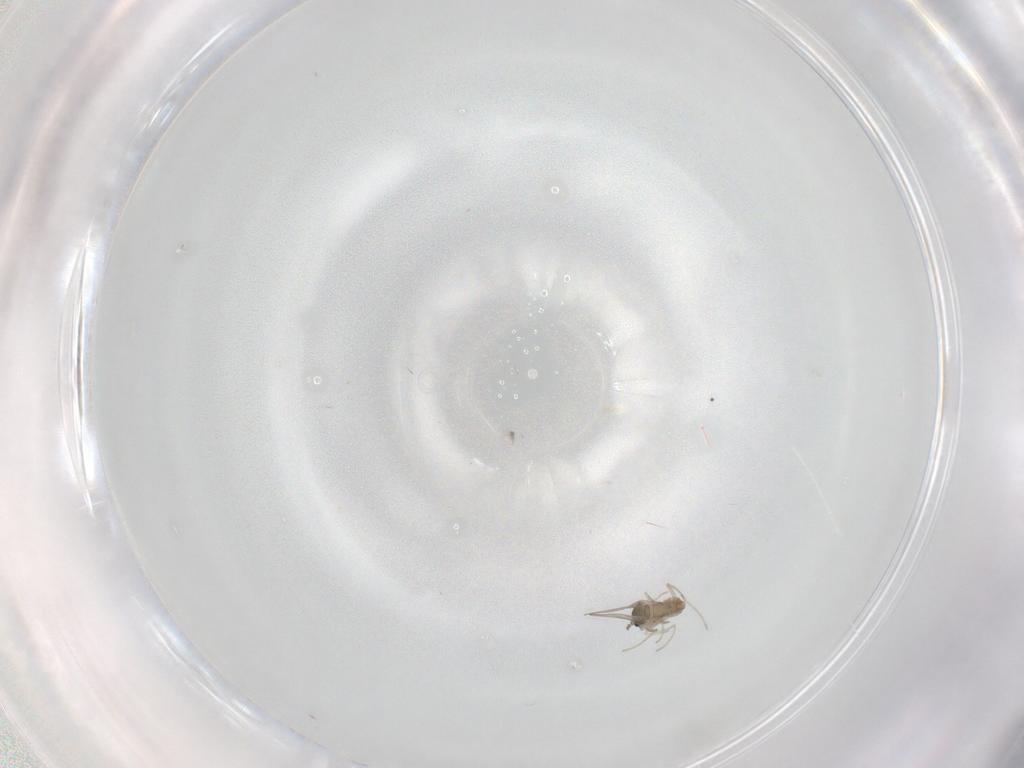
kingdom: Animalia
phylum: Arthropoda
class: Insecta
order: Diptera
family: Cecidomyiidae
